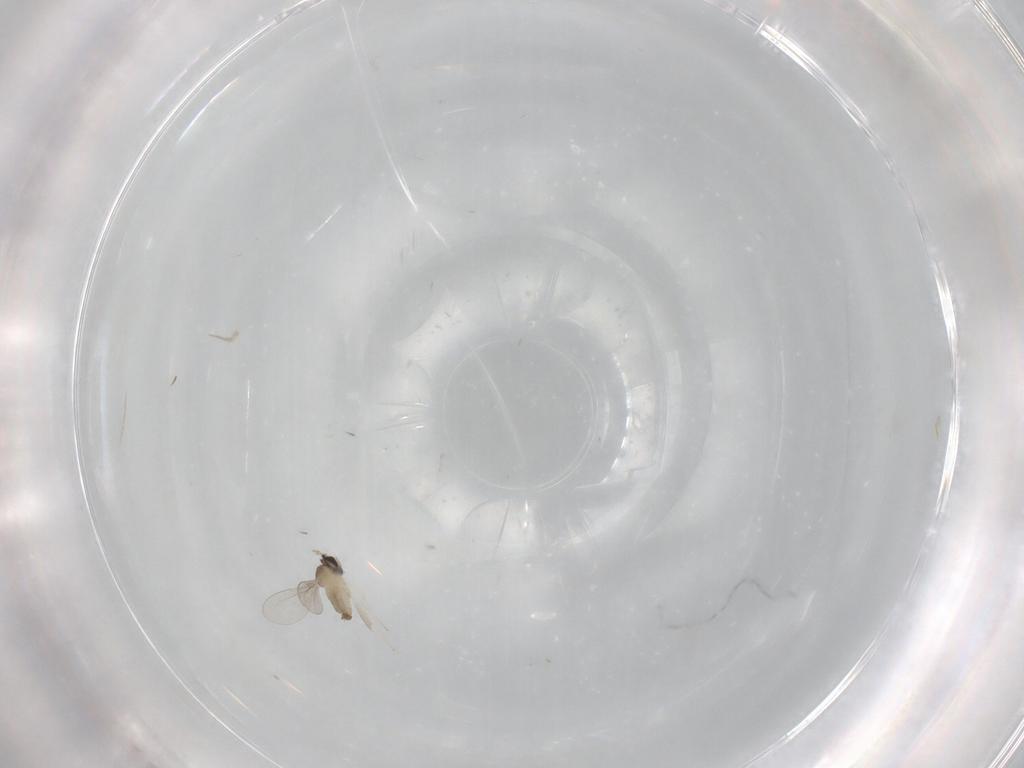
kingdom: Animalia
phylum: Arthropoda
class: Insecta
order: Diptera
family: Cecidomyiidae
